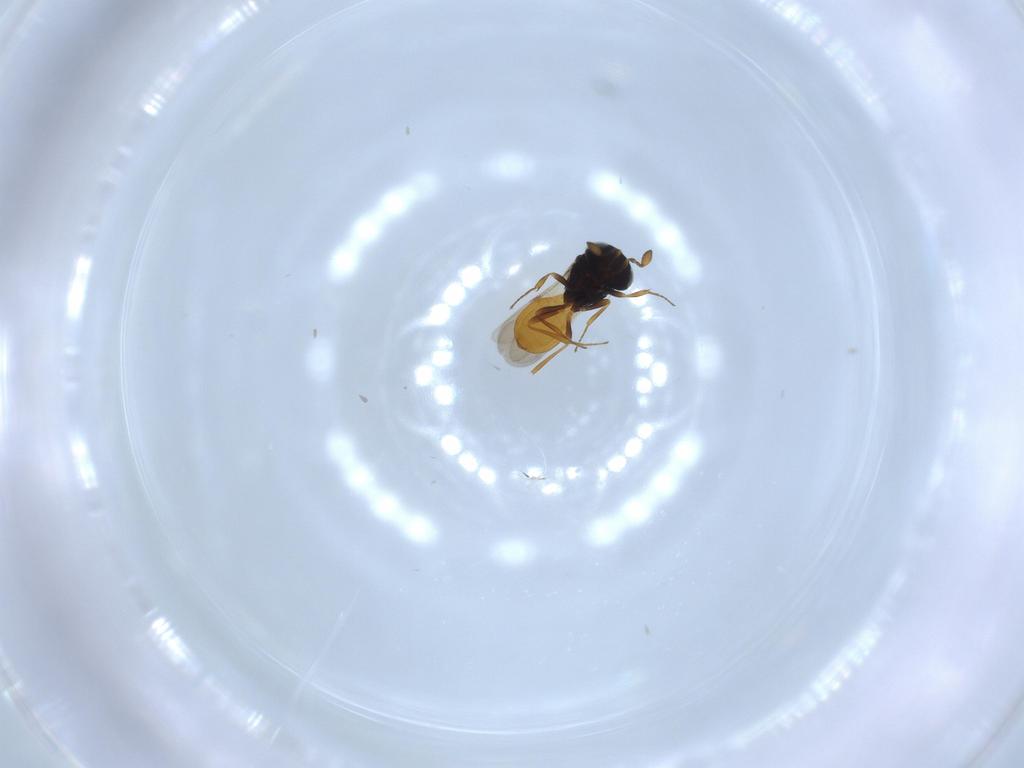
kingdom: Animalia
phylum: Arthropoda
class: Insecta
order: Hymenoptera
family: Scelionidae
